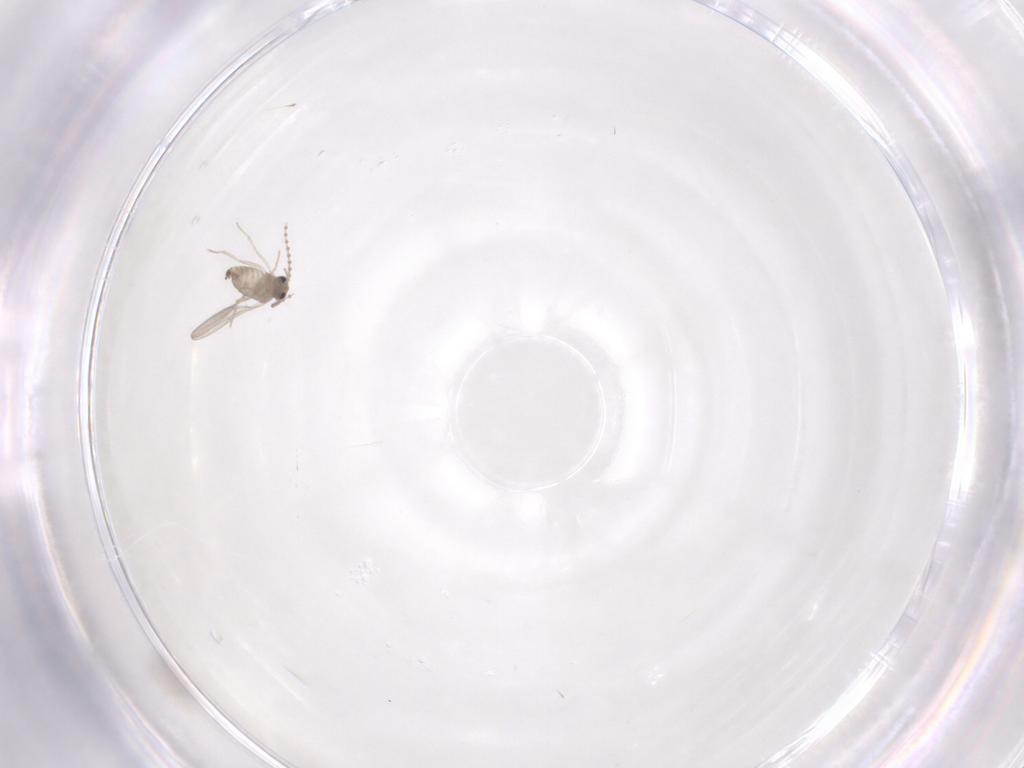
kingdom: Animalia
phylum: Arthropoda
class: Insecta
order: Diptera
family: Cecidomyiidae
